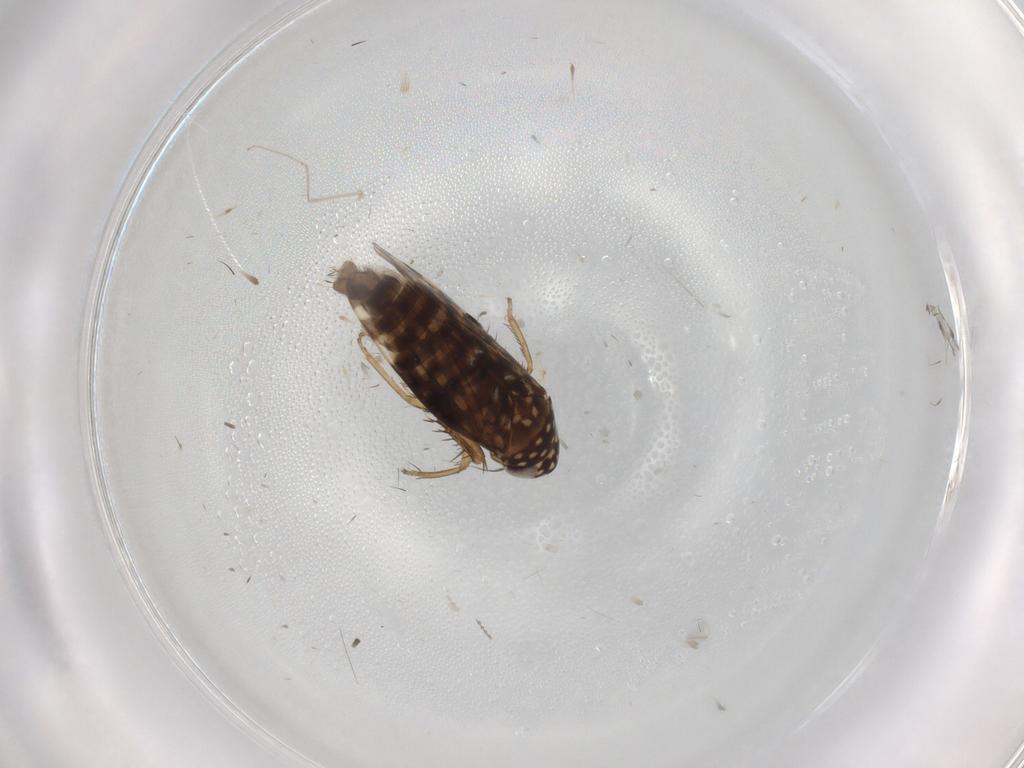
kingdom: Animalia
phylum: Arthropoda
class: Insecta
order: Hemiptera
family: Cicadellidae
